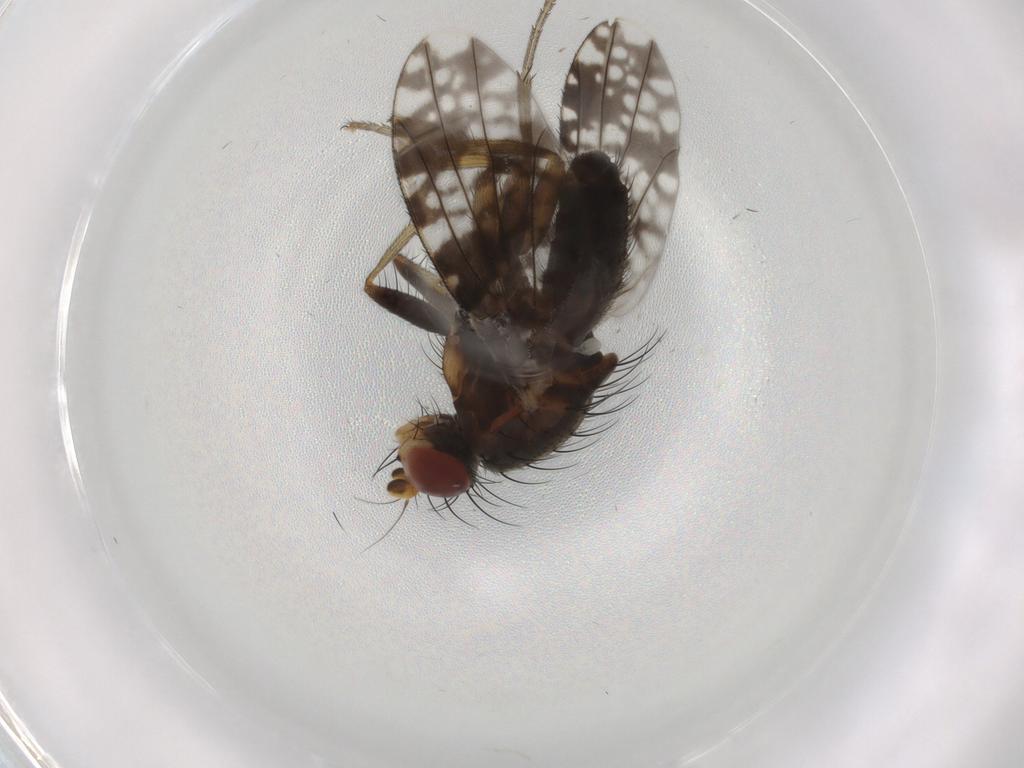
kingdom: Animalia
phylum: Arthropoda
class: Insecta
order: Diptera
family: Tephritidae
